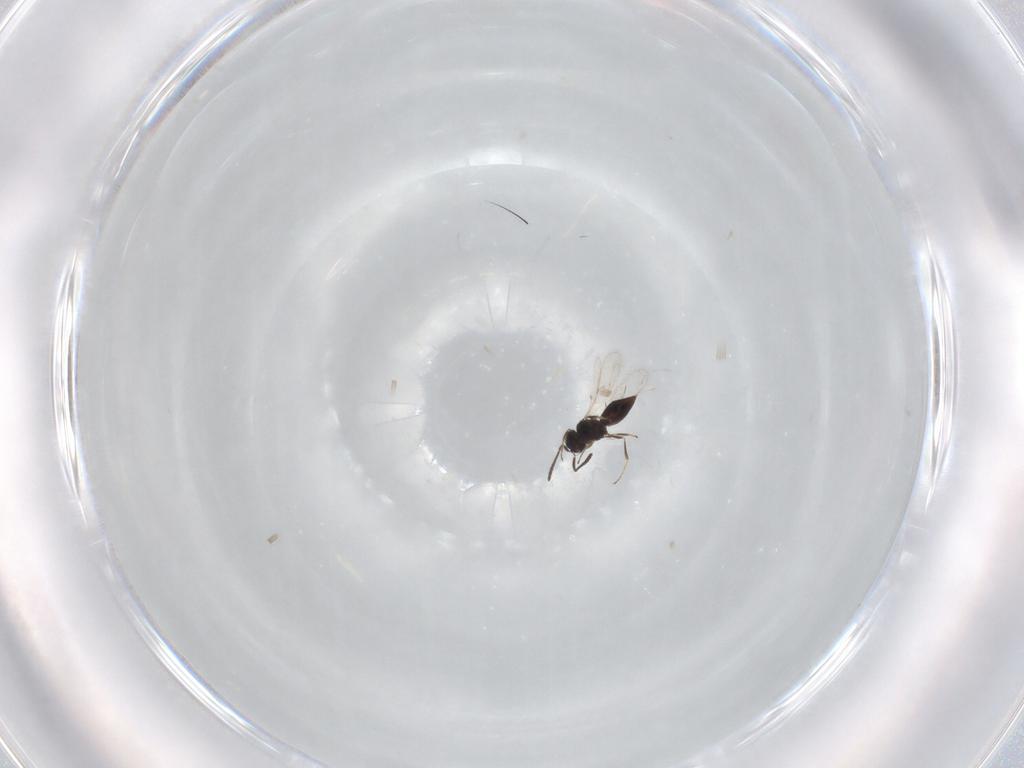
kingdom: Animalia
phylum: Arthropoda
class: Insecta
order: Hymenoptera
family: Scelionidae
